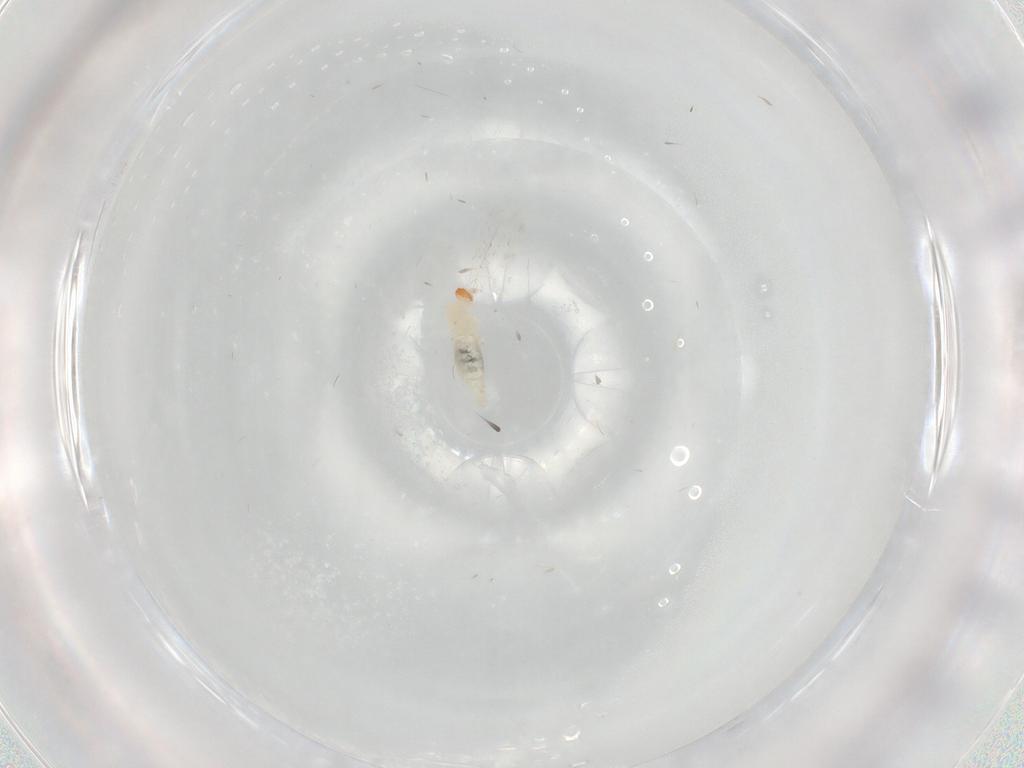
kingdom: Animalia
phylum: Arthropoda
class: Insecta
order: Diptera
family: Cecidomyiidae
